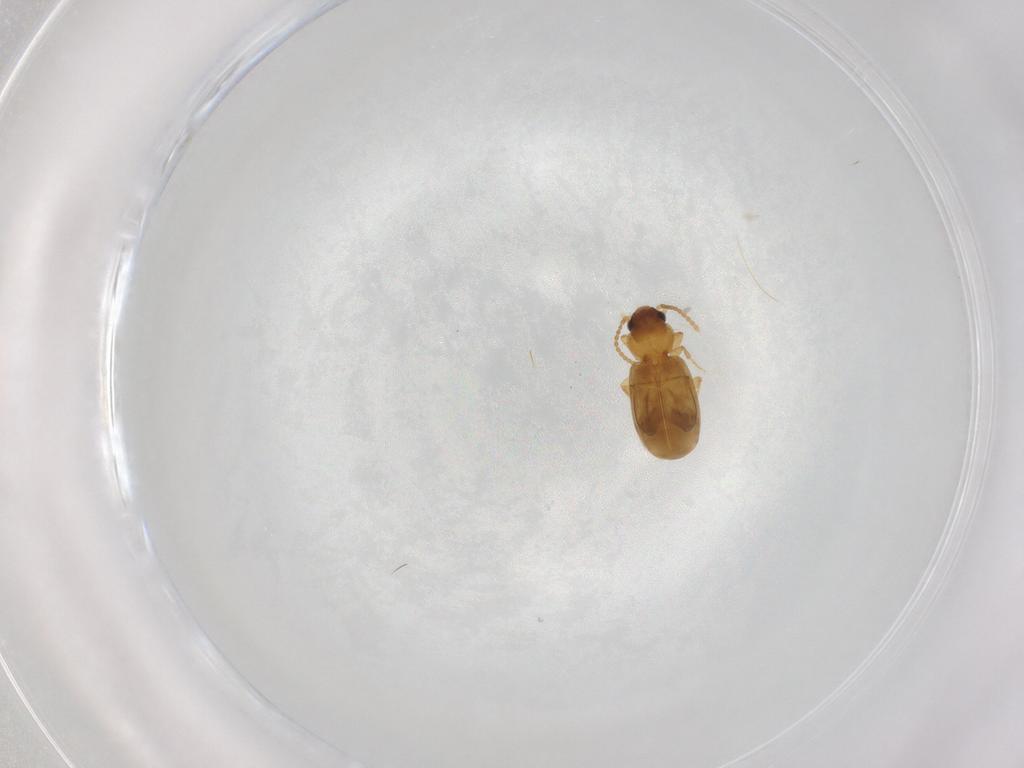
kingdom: Animalia
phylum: Arthropoda
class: Insecta
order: Coleoptera
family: Carabidae
